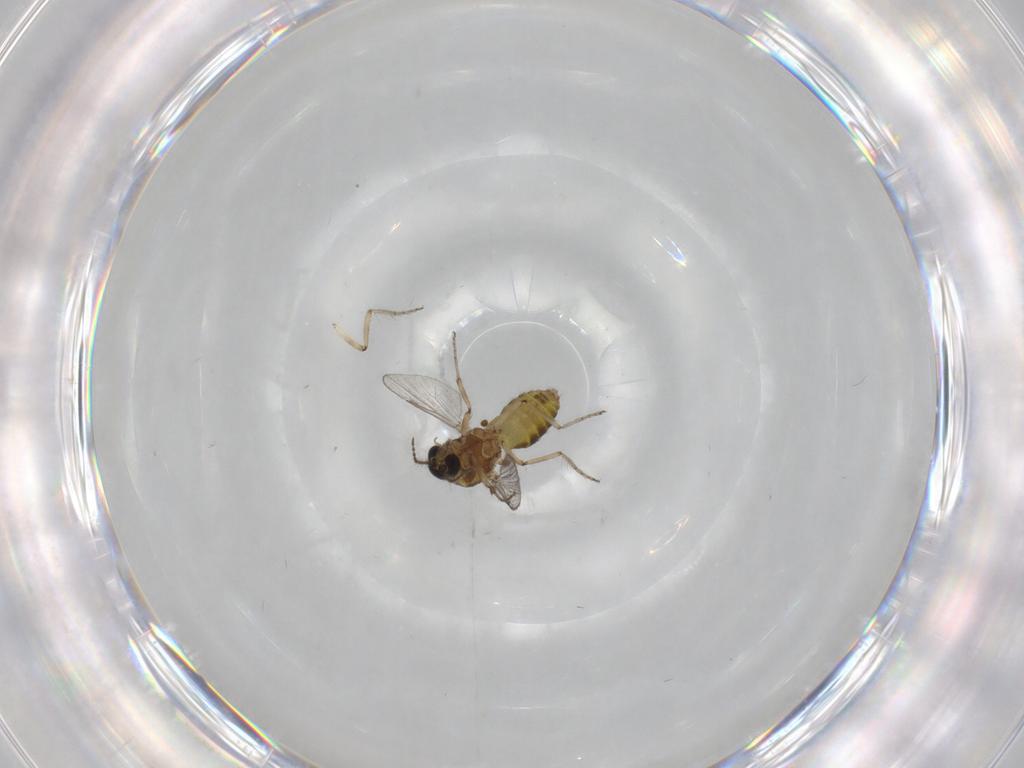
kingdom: Animalia
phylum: Arthropoda
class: Insecta
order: Diptera
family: Ceratopogonidae
